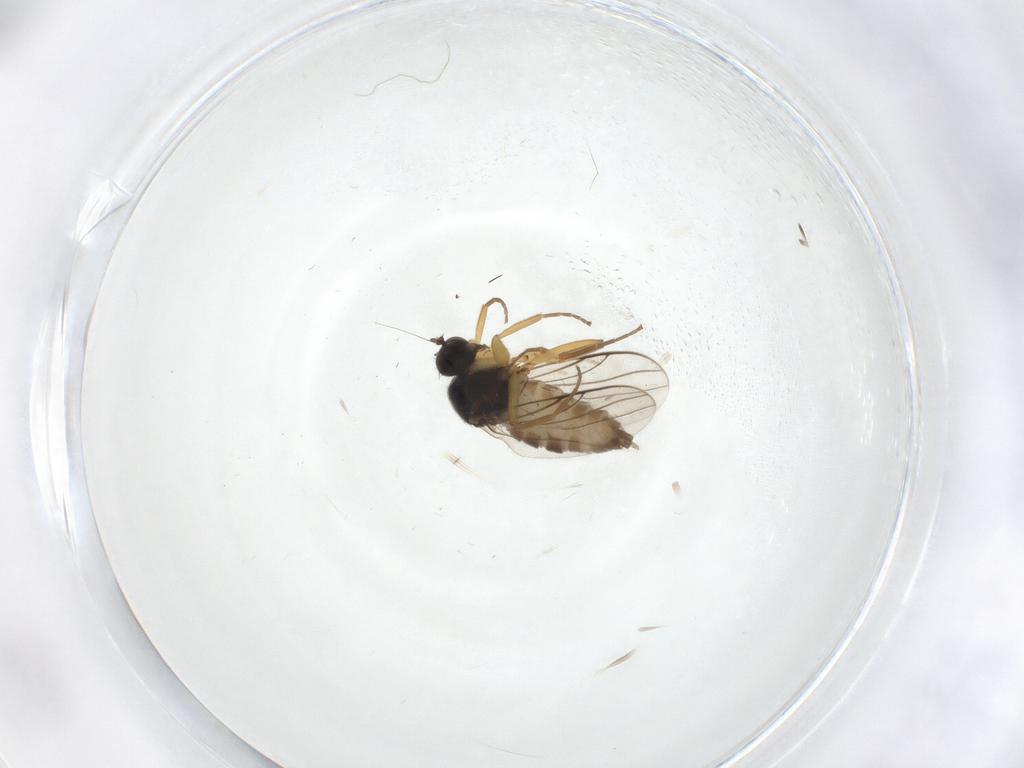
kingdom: Animalia
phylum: Arthropoda
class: Insecta
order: Diptera
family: Hybotidae
